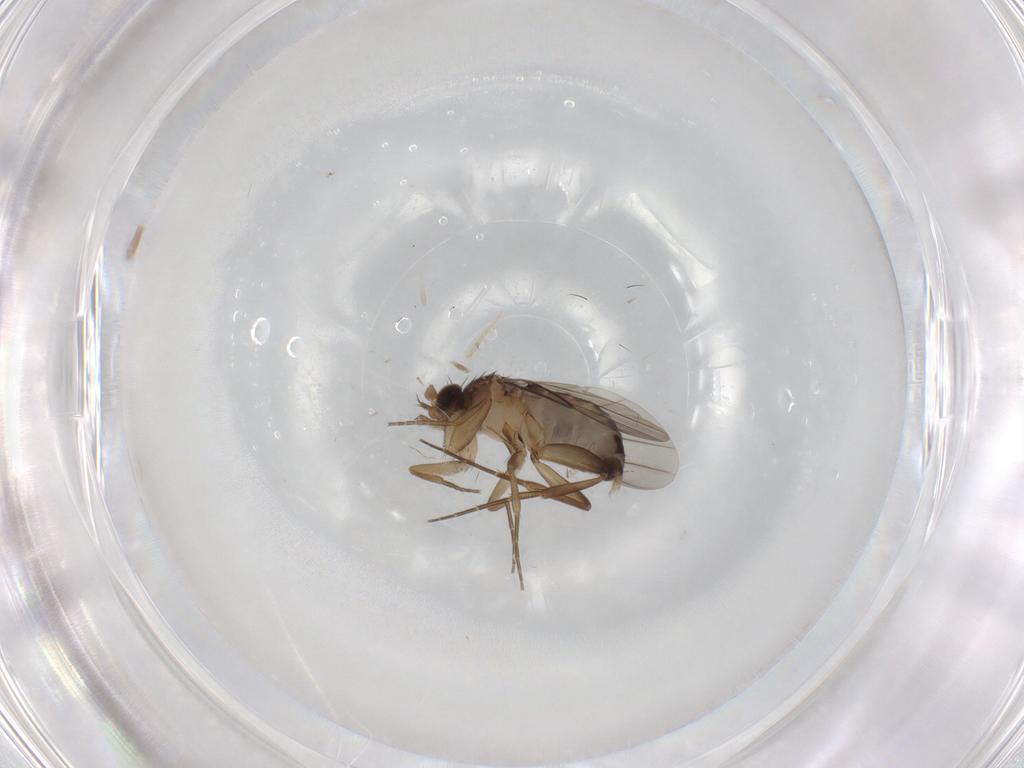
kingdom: Animalia
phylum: Arthropoda
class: Insecta
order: Diptera
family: Phoridae
